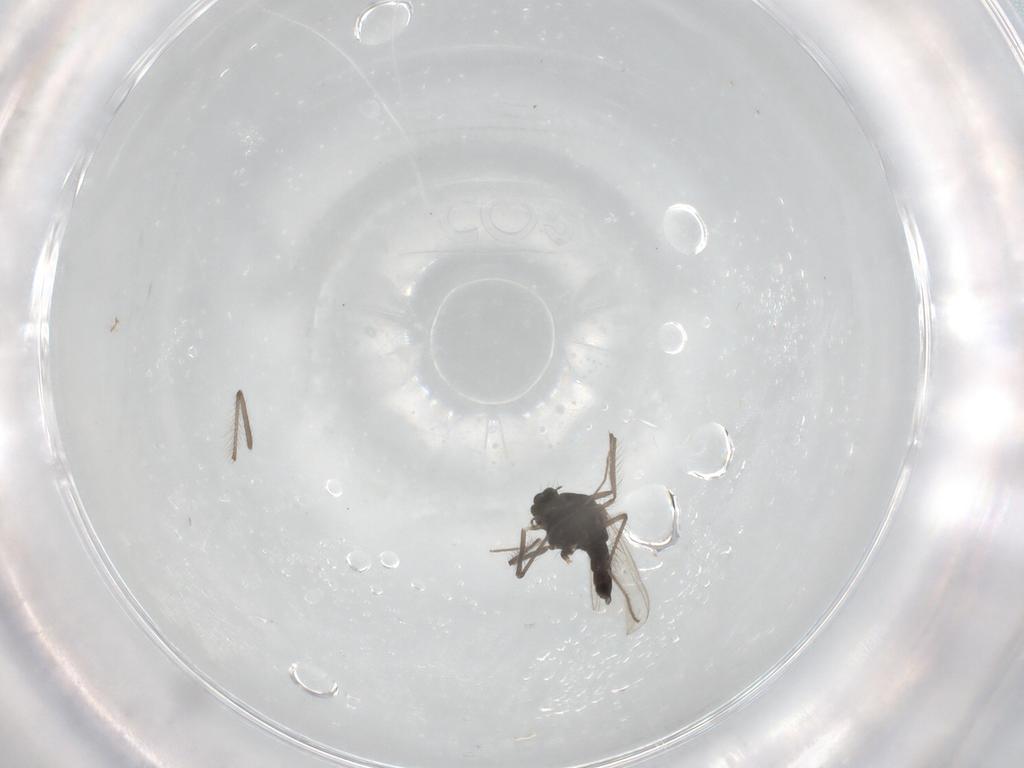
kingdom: Animalia
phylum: Arthropoda
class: Insecta
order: Diptera
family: Chironomidae
